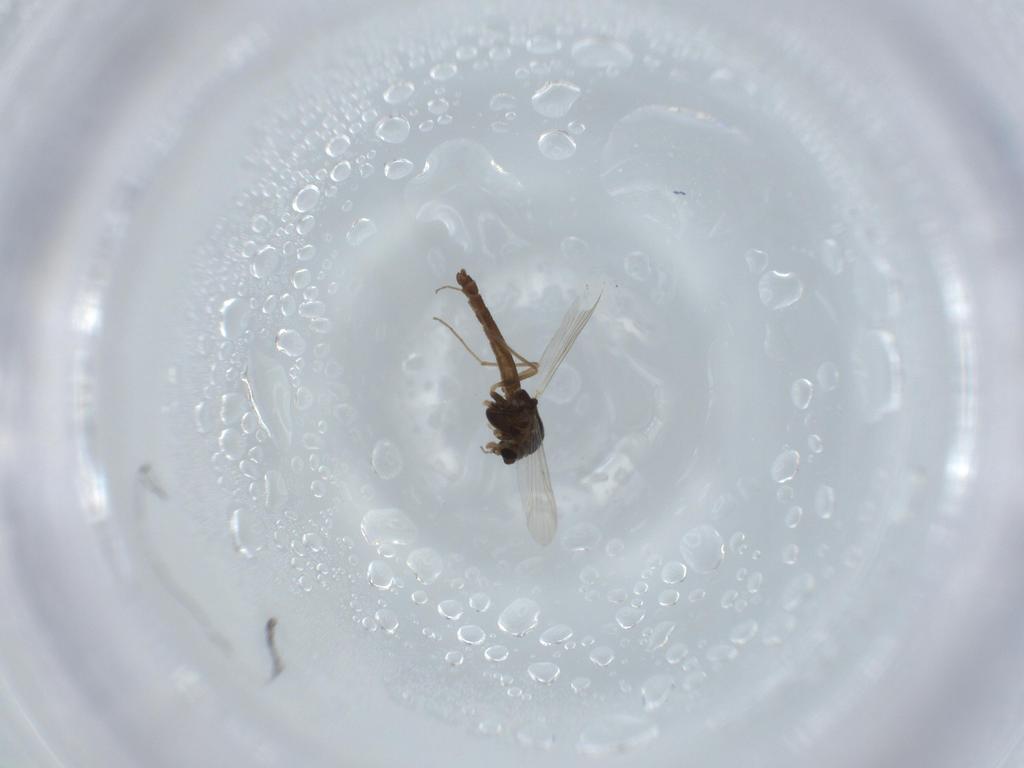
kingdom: Animalia
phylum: Arthropoda
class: Insecta
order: Diptera
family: Chironomidae
